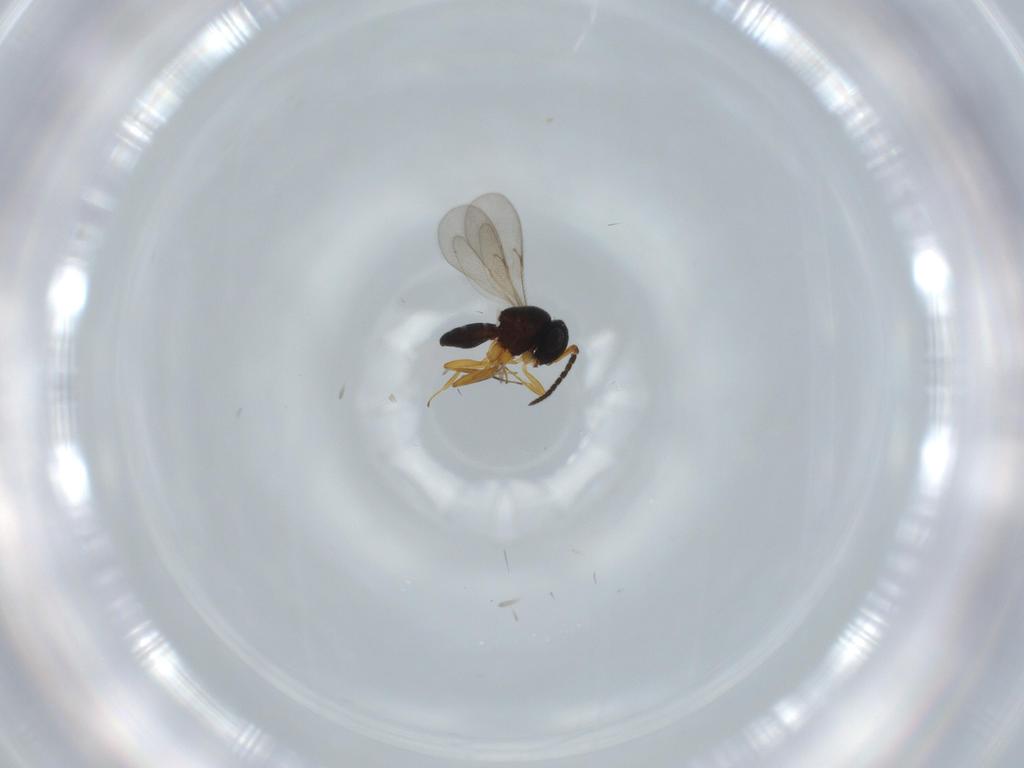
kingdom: Animalia
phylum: Arthropoda
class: Insecta
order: Hymenoptera
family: Scelionidae
